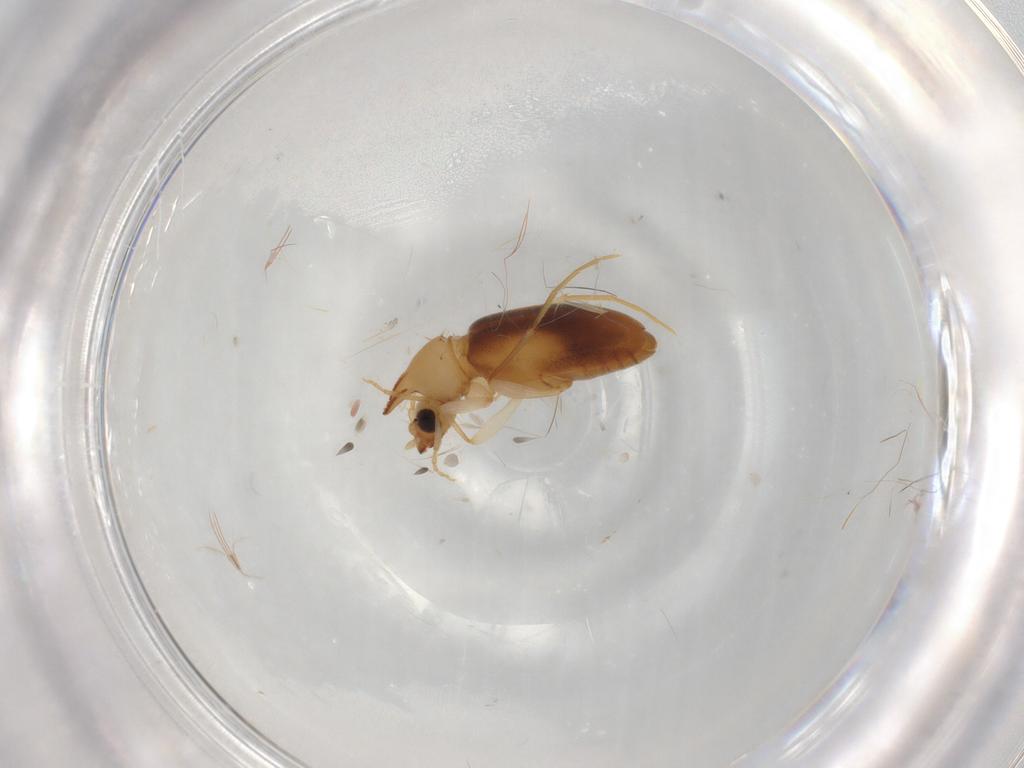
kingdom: Animalia
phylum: Arthropoda
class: Insecta
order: Coleoptera
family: Anthicidae
